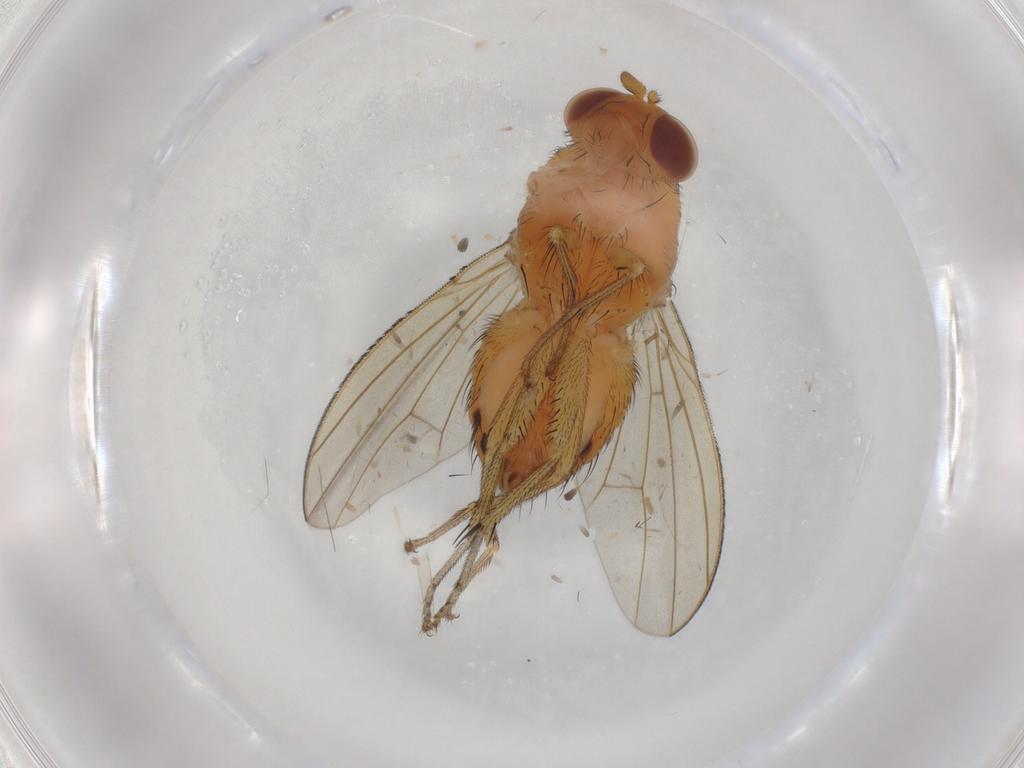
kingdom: Animalia
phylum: Arthropoda
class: Insecta
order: Diptera
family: Cecidomyiidae
